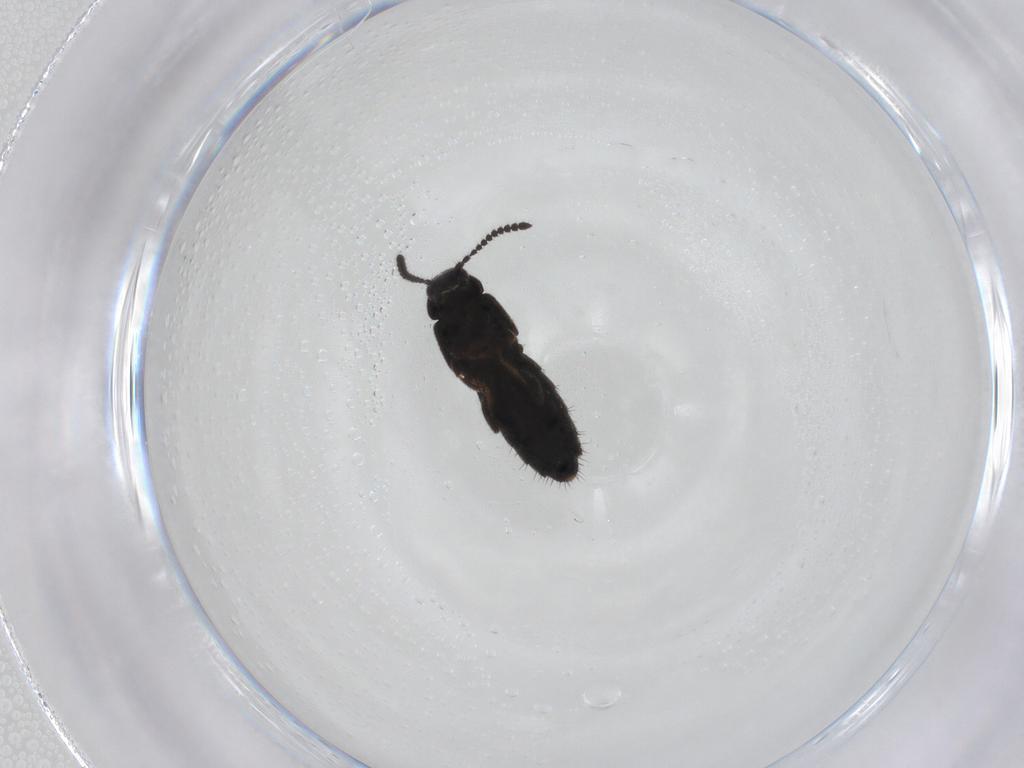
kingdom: Animalia
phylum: Arthropoda
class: Insecta
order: Coleoptera
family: Staphylinidae
